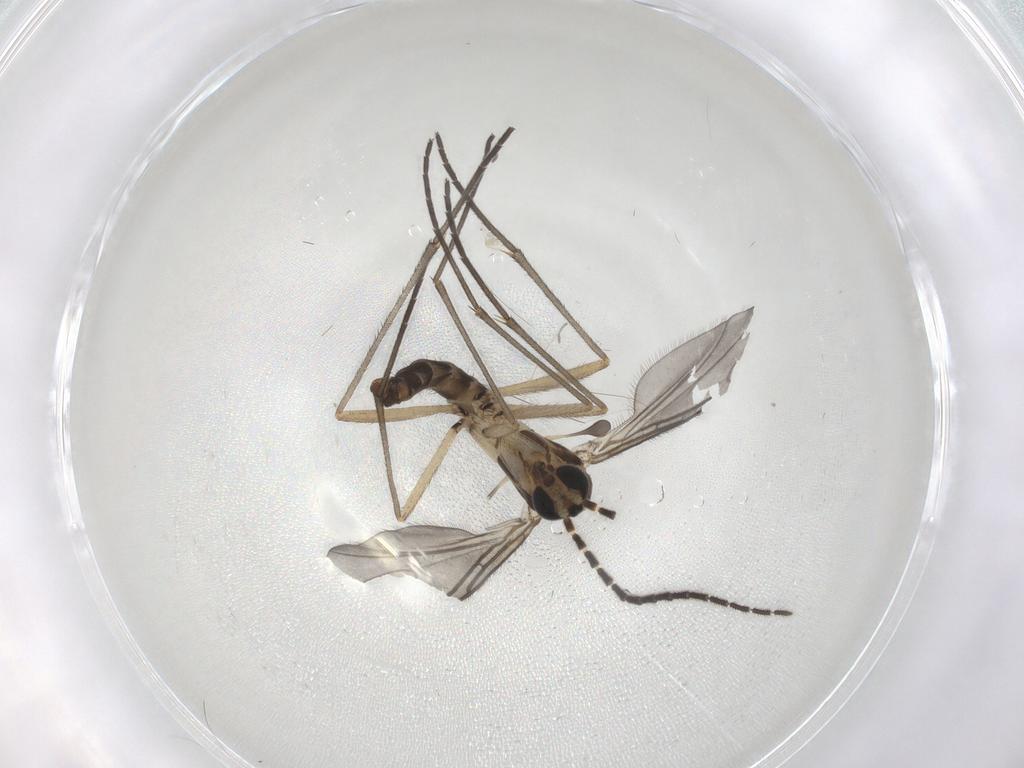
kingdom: Animalia
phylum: Arthropoda
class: Insecta
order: Diptera
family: Sciaridae
